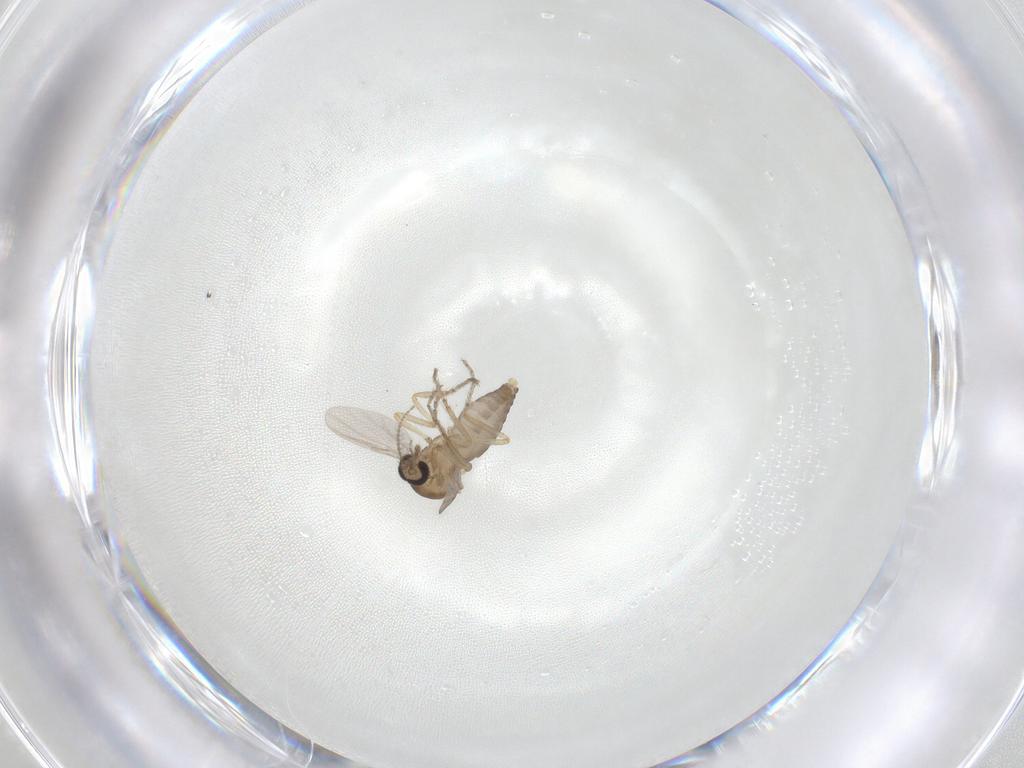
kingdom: Animalia
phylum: Arthropoda
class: Insecta
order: Diptera
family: Ceratopogonidae
